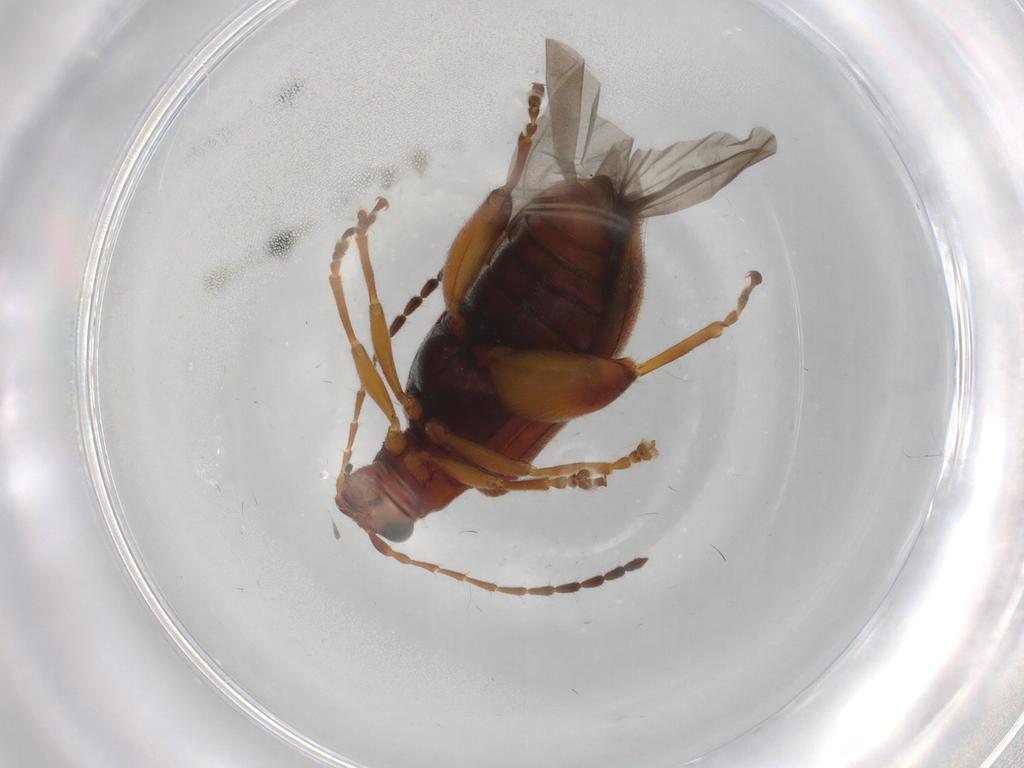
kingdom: Animalia
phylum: Arthropoda
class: Insecta
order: Coleoptera
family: Chrysomelidae
